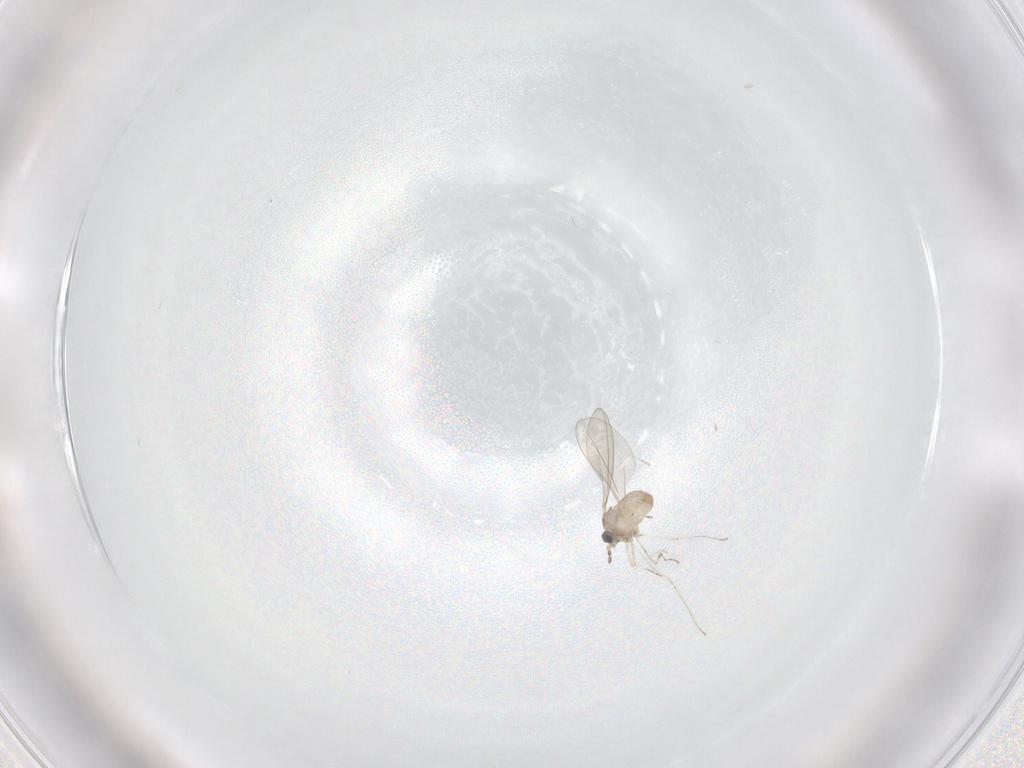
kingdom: Animalia
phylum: Arthropoda
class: Insecta
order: Diptera
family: Cecidomyiidae
